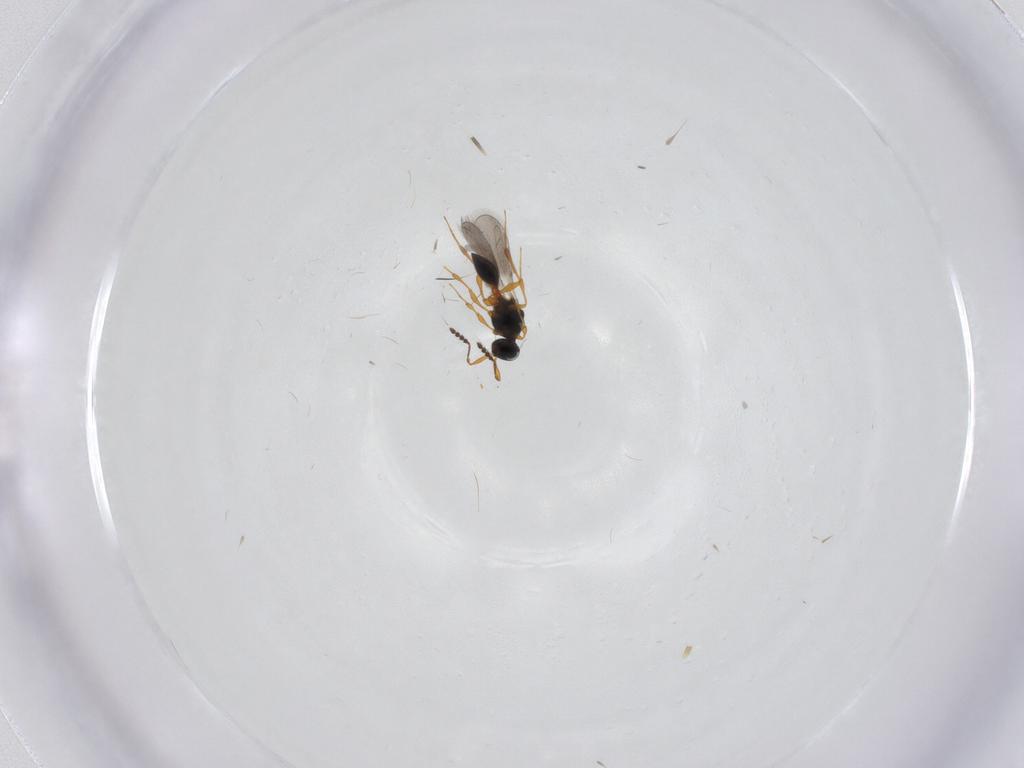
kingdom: Animalia
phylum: Arthropoda
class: Insecta
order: Hymenoptera
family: Platygastridae
